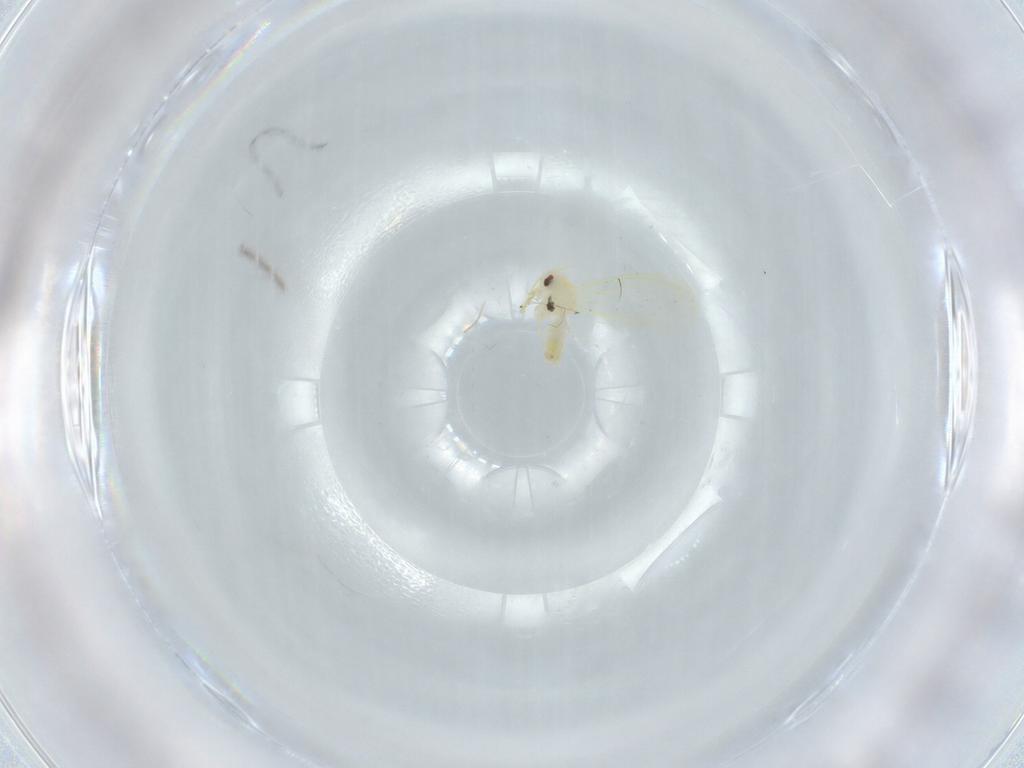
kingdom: Animalia
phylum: Arthropoda
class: Insecta
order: Hemiptera
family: Aleyrodidae
